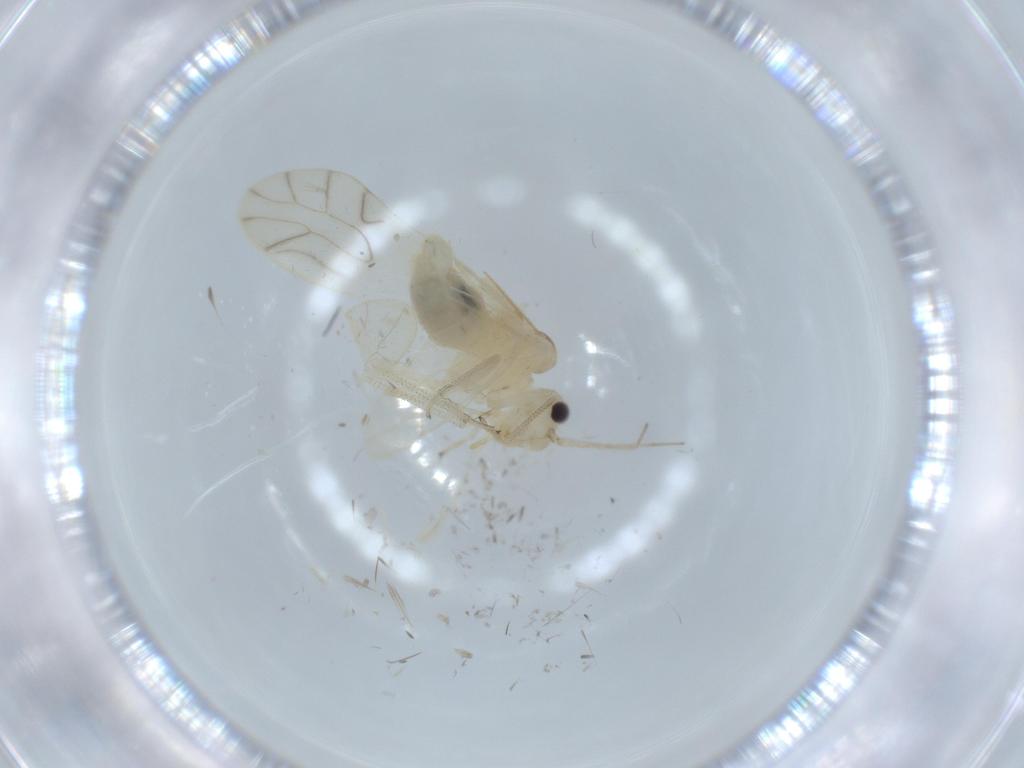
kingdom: Animalia
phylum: Arthropoda
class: Insecta
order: Psocodea
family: Caeciliusidae
